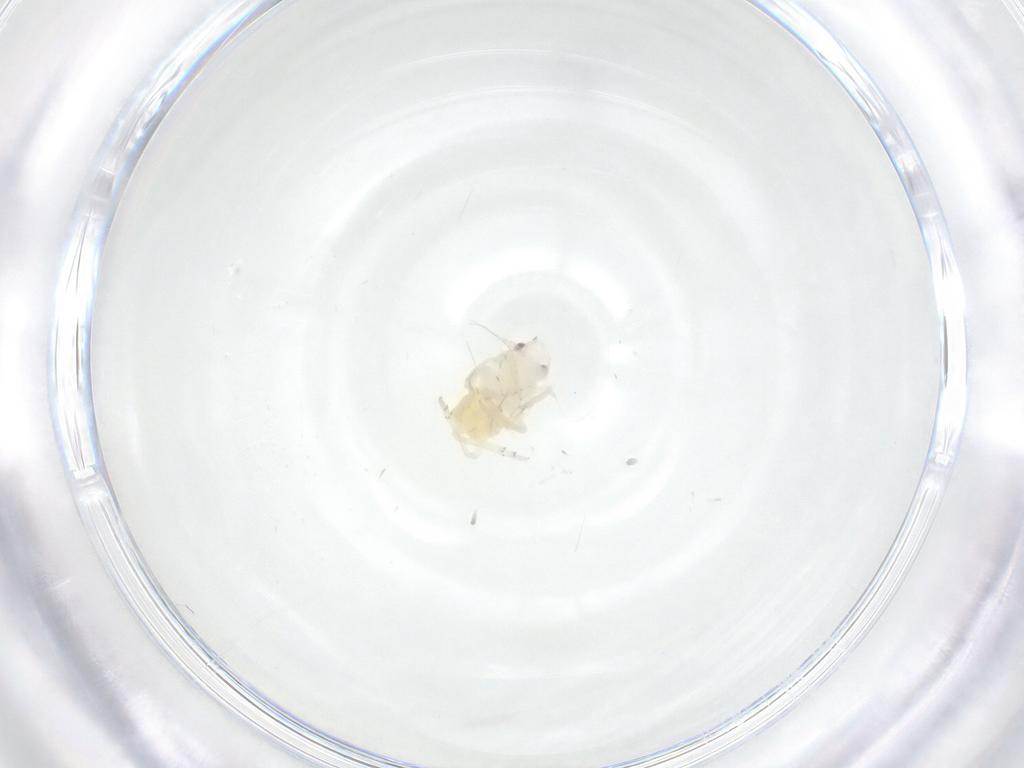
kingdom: Animalia
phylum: Arthropoda
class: Insecta
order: Hemiptera
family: Fulgoroidea_incertae_sedis
